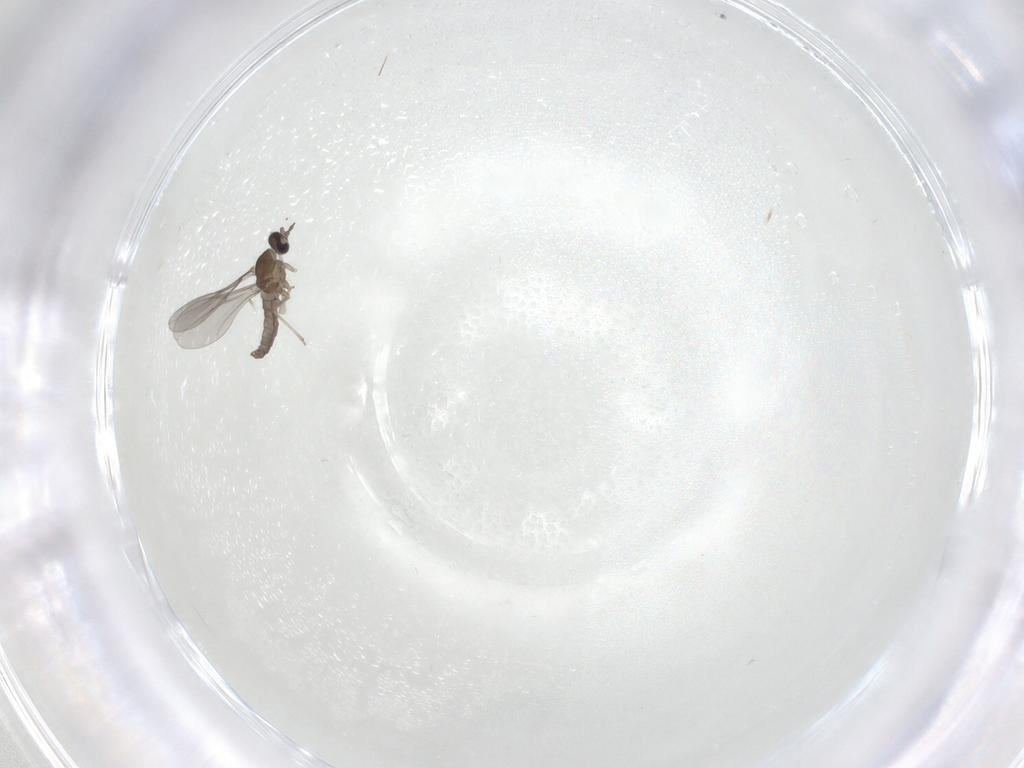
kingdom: Animalia
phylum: Arthropoda
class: Insecta
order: Diptera
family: Cecidomyiidae
